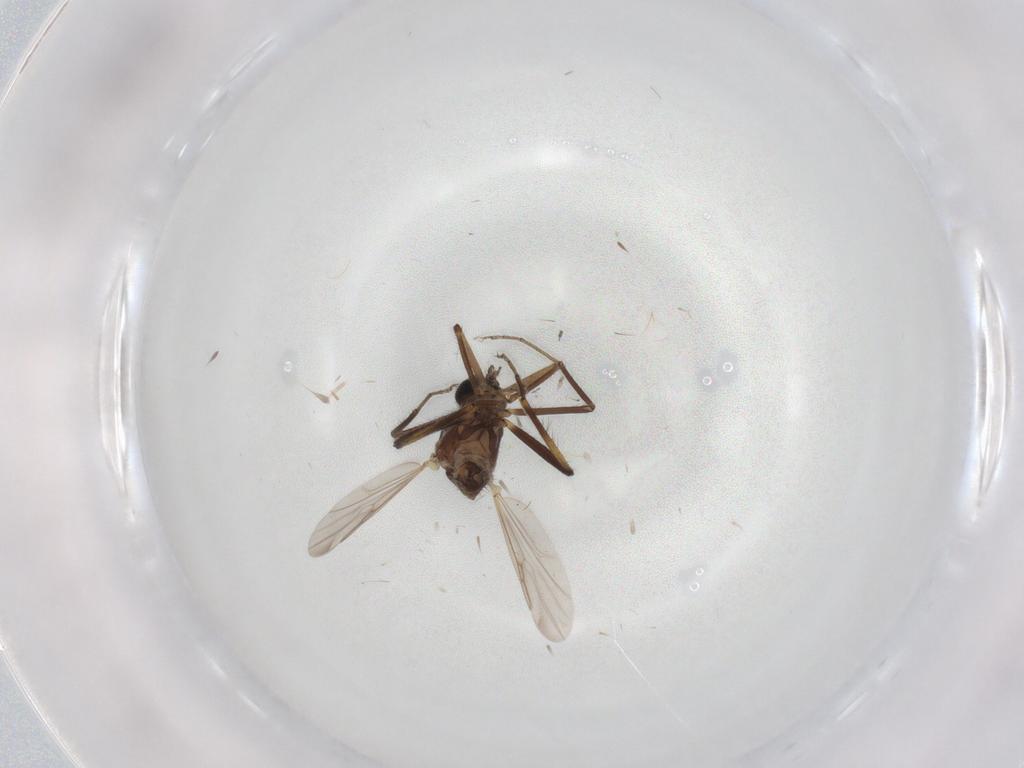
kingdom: Animalia
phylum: Arthropoda
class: Insecta
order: Diptera
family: Ceratopogonidae
